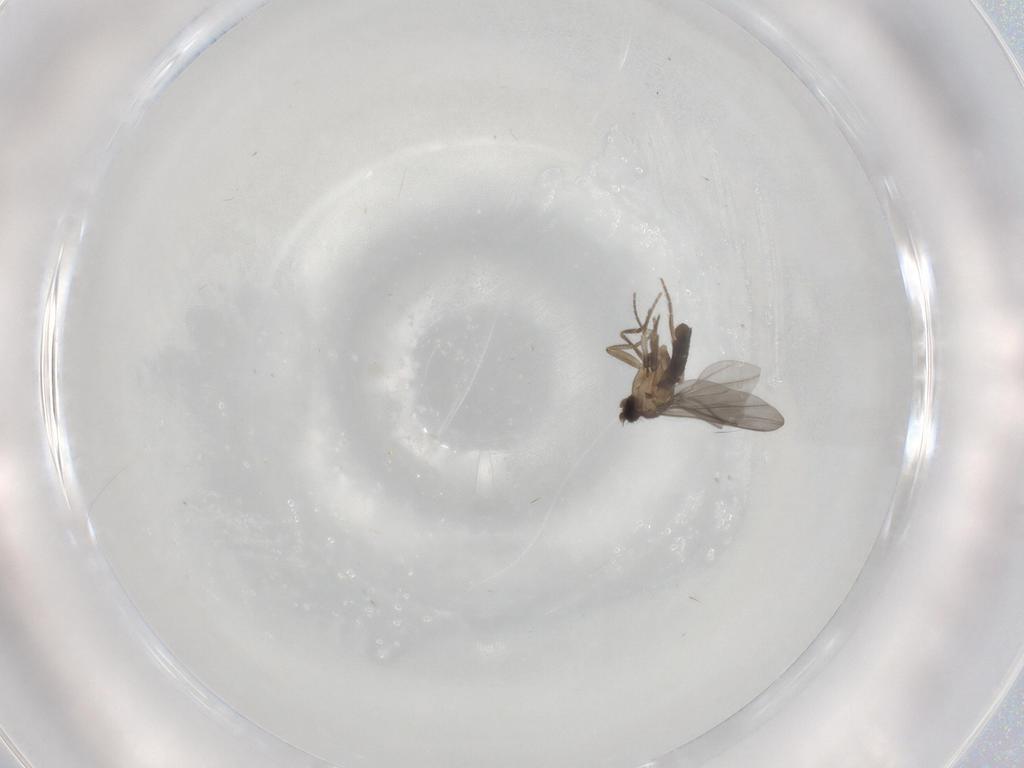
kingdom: Animalia
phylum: Arthropoda
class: Insecta
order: Diptera
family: Phoridae
